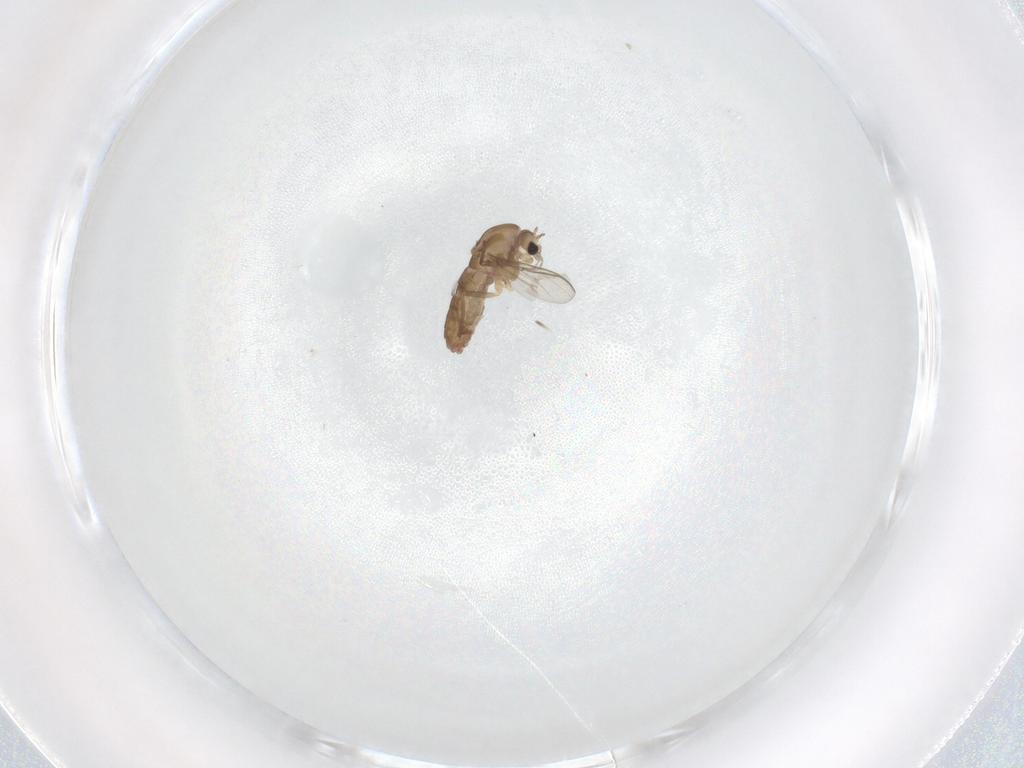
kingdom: Animalia
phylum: Arthropoda
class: Insecta
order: Diptera
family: Chironomidae
